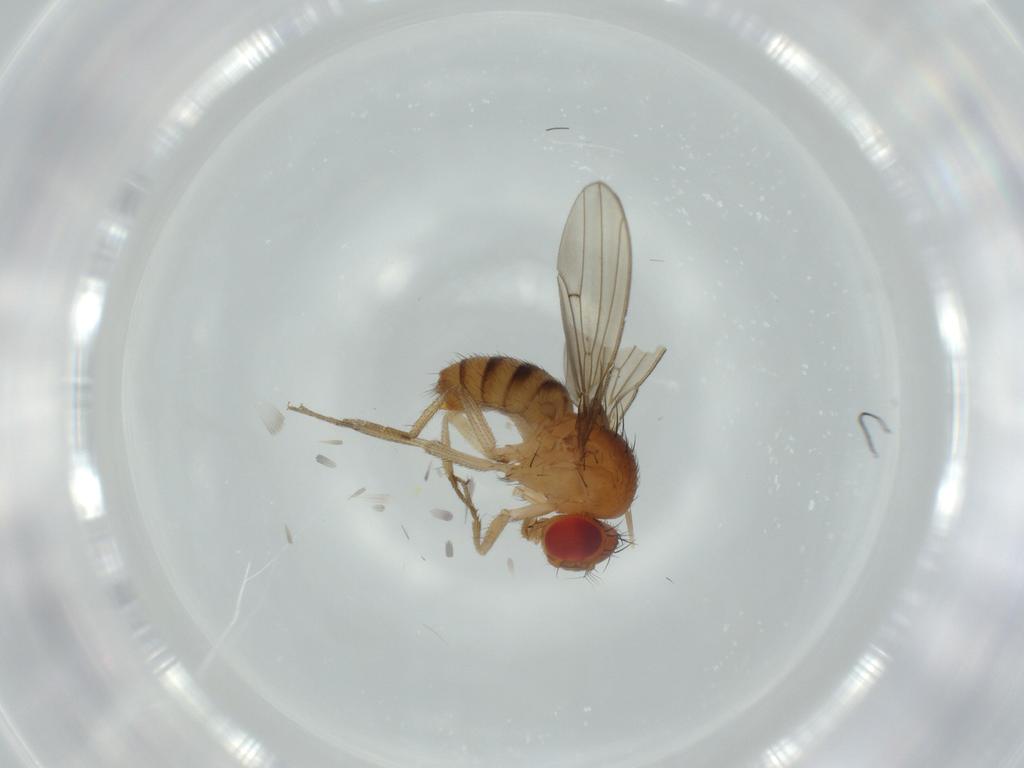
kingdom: Animalia
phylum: Arthropoda
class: Insecta
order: Diptera
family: Drosophilidae
